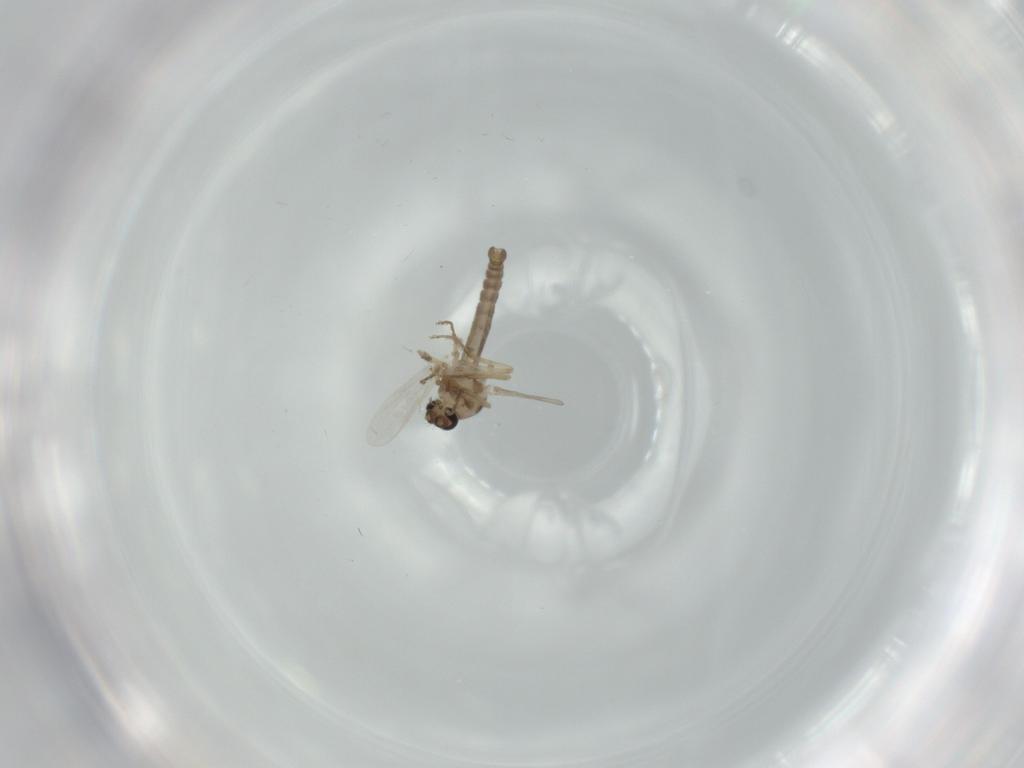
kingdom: Animalia
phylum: Arthropoda
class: Insecta
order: Diptera
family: Ceratopogonidae
